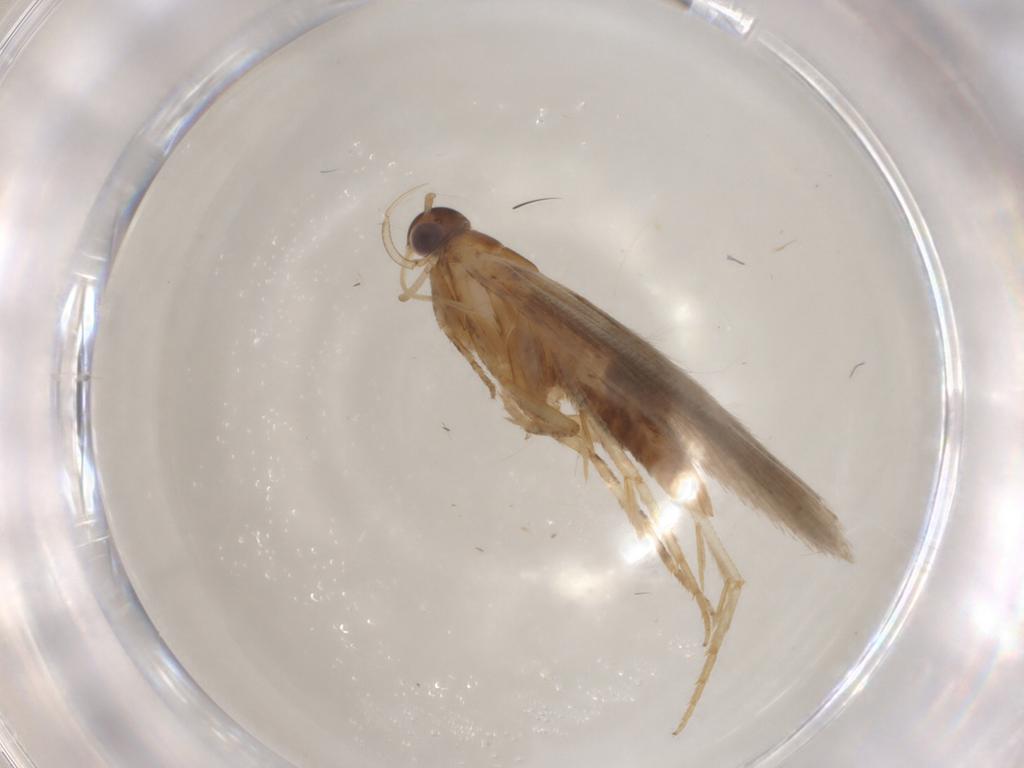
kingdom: Animalia
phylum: Arthropoda
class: Insecta
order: Lepidoptera
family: Gelechiidae
